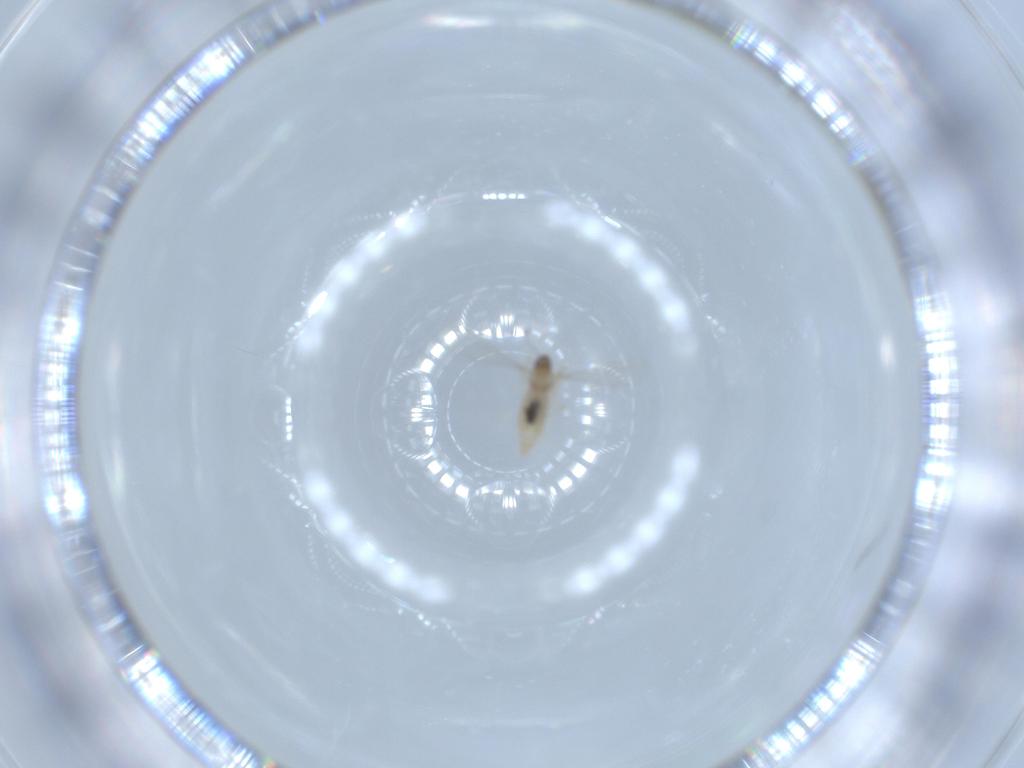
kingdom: Animalia
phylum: Arthropoda
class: Insecta
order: Diptera
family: Cecidomyiidae
